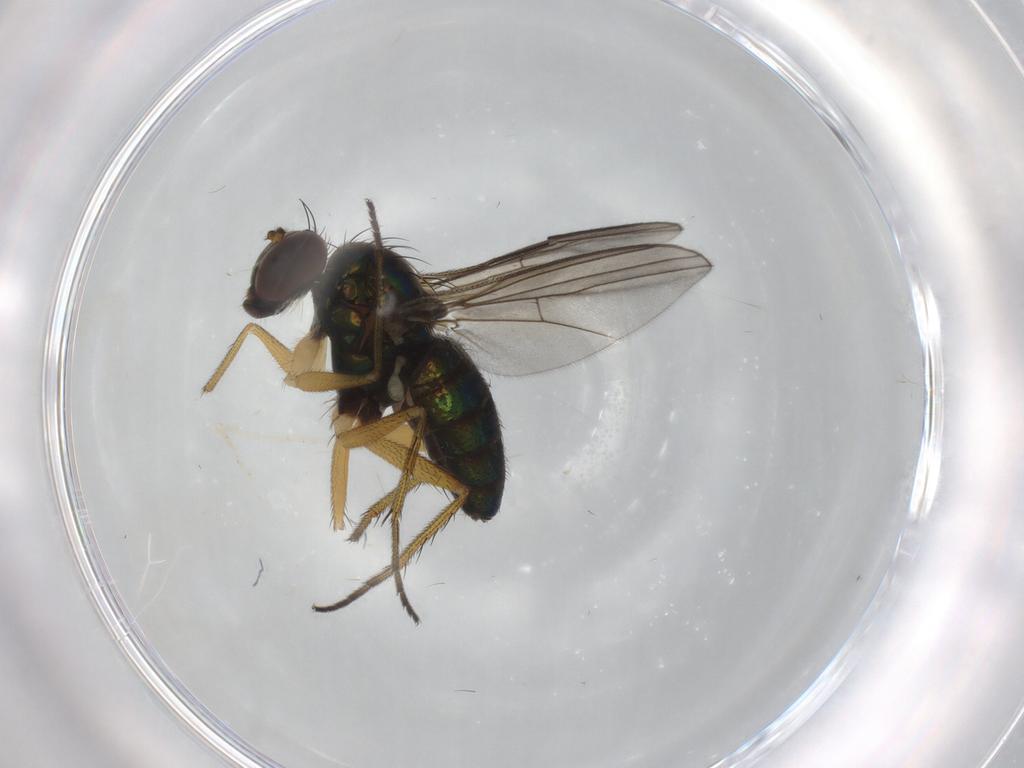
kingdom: Animalia
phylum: Arthropoda
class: Insecta
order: Diptera
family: Dolichopodidae
